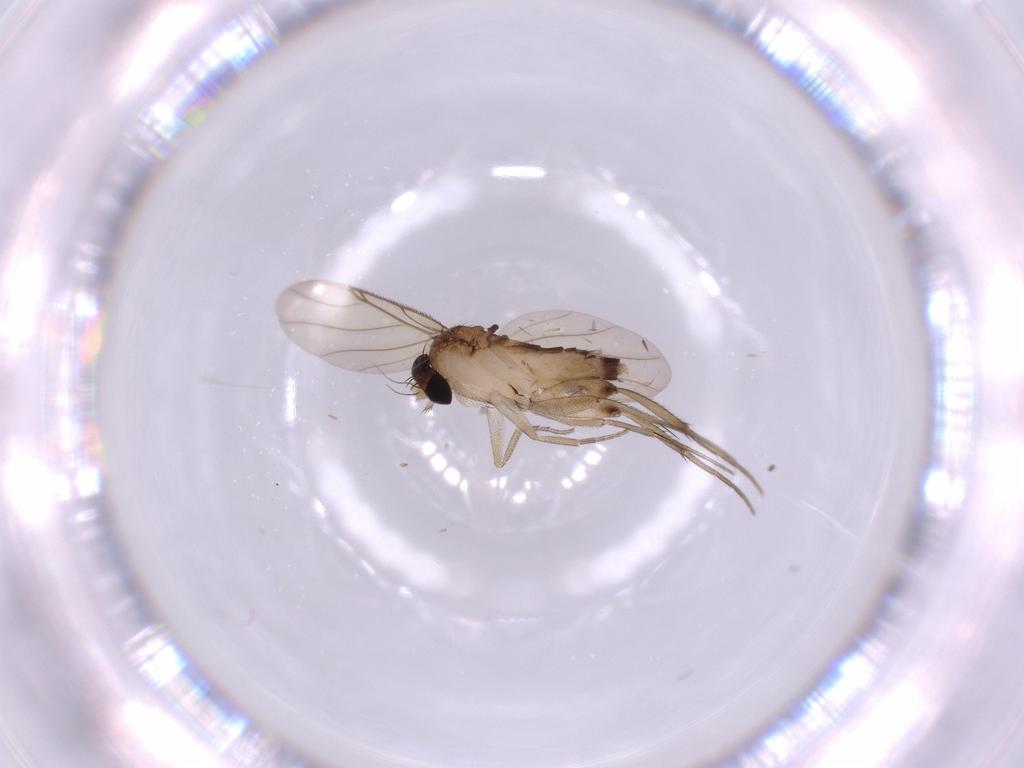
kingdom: Animalia
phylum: Arthropoda
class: Insecta
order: Diptera
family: Phoridae
